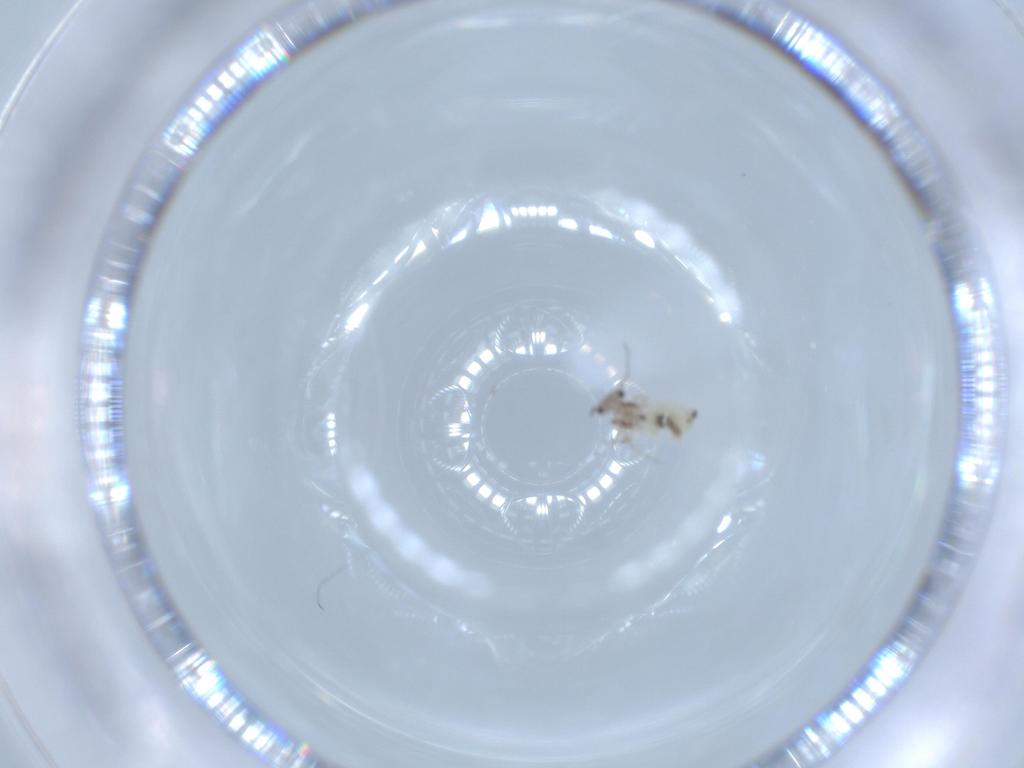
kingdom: Animalia
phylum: Arthropoda
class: Insecta
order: Psocodea
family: Lepidopsocidae
